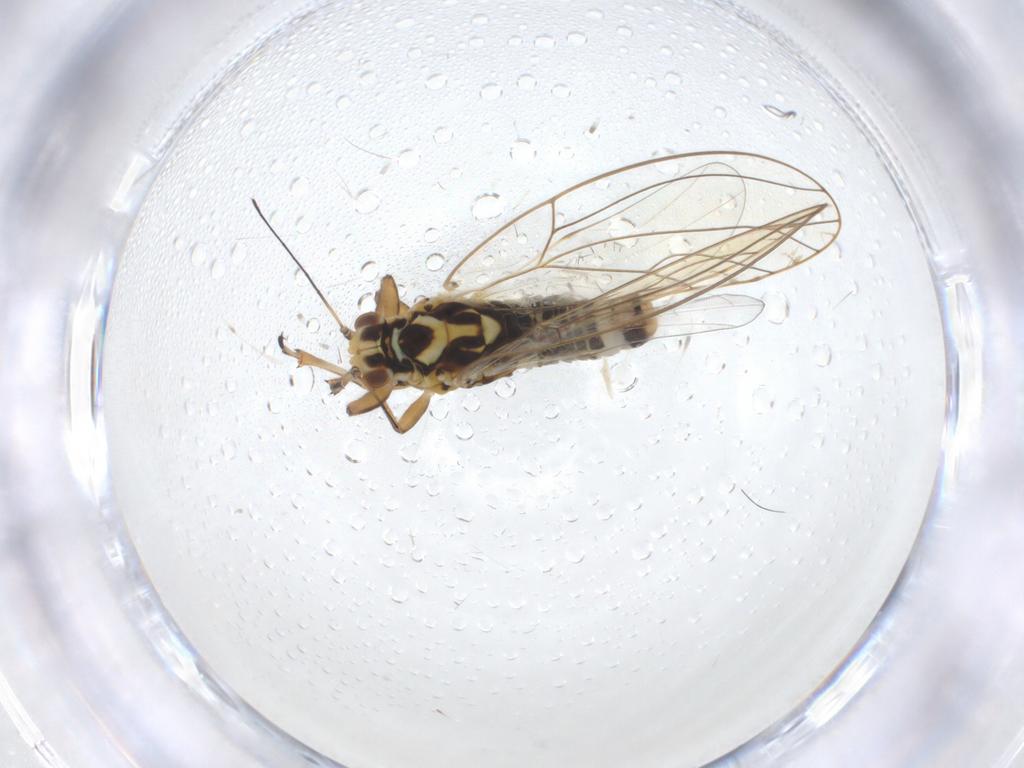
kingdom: Animalia
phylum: Arthropoda
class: Insecta
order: Hemiptera
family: Triozidae
